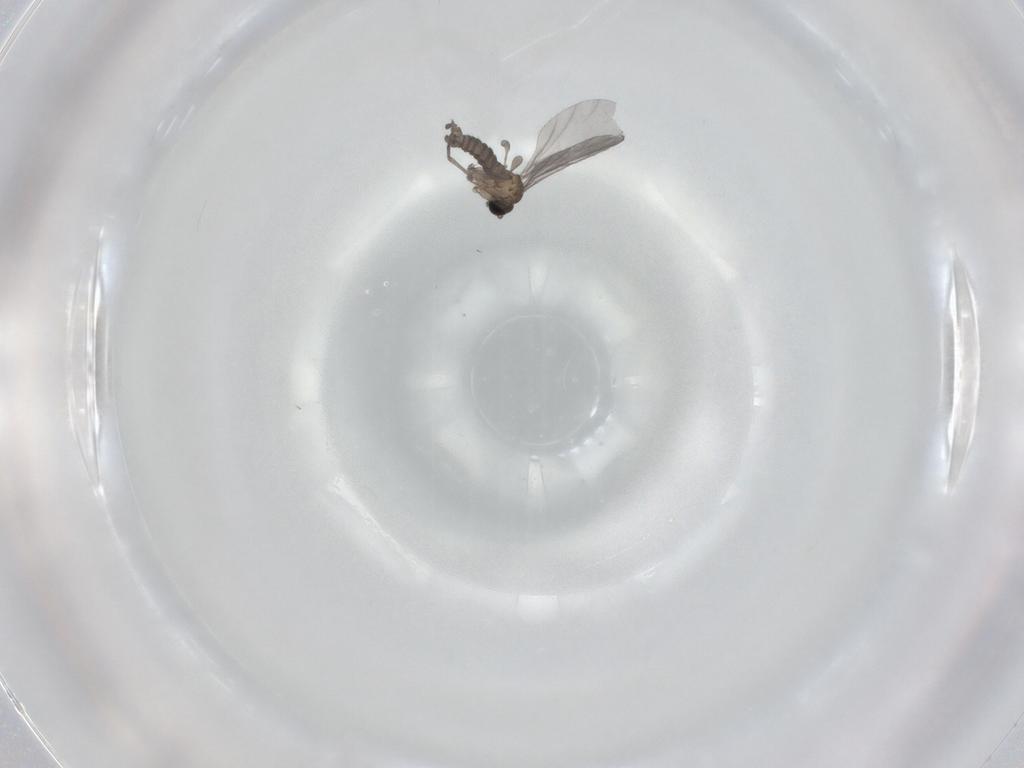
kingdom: Animalia
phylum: Arthropoda
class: Insecta
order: Diptera
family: Sciaridae
